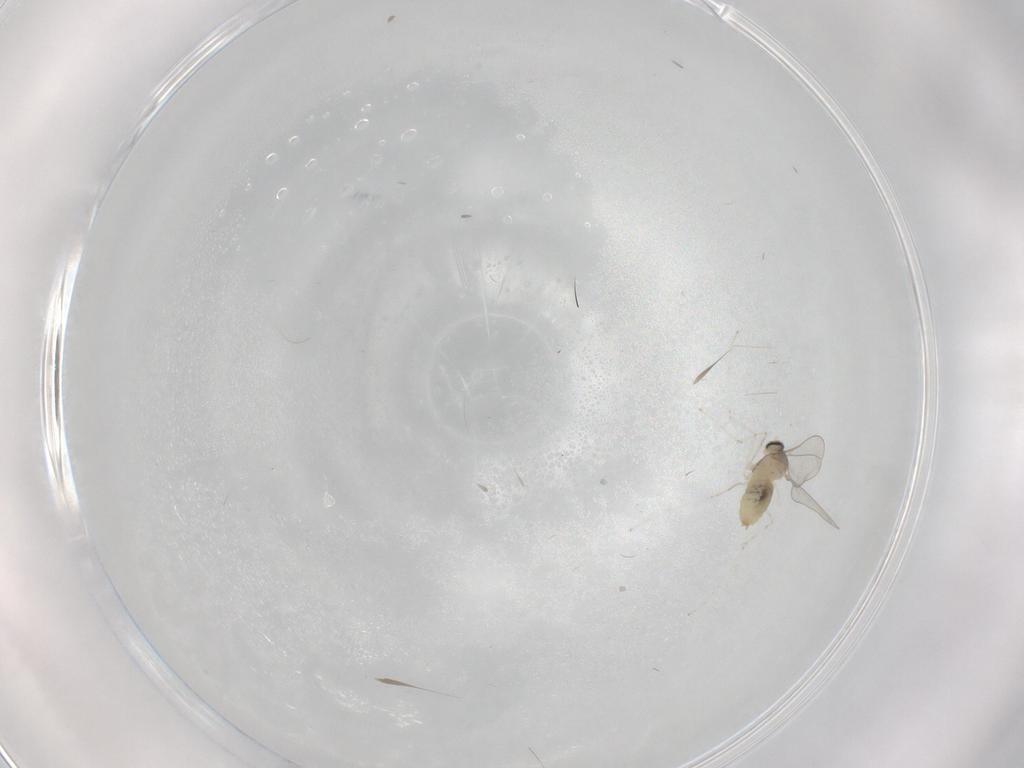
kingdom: Animalia
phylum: Arthropoda
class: Insecta
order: Diptera
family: Cecidomyiidae
